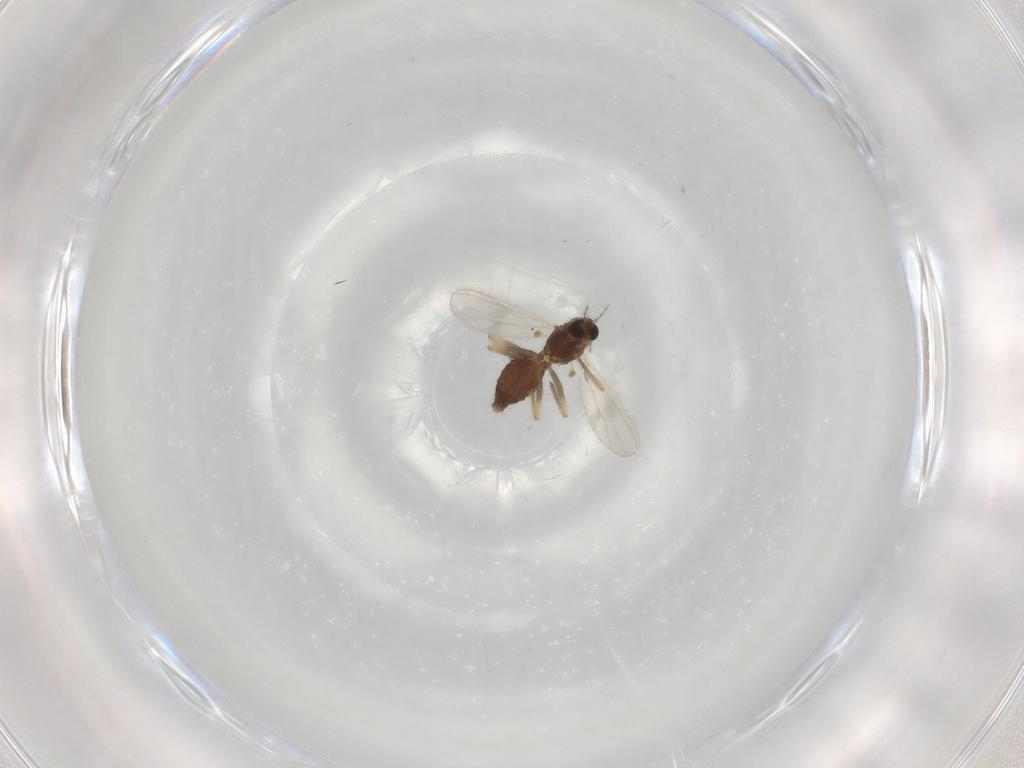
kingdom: Animalia
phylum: Arthropoda
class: Insecta
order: Diptera
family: Chironomidae
